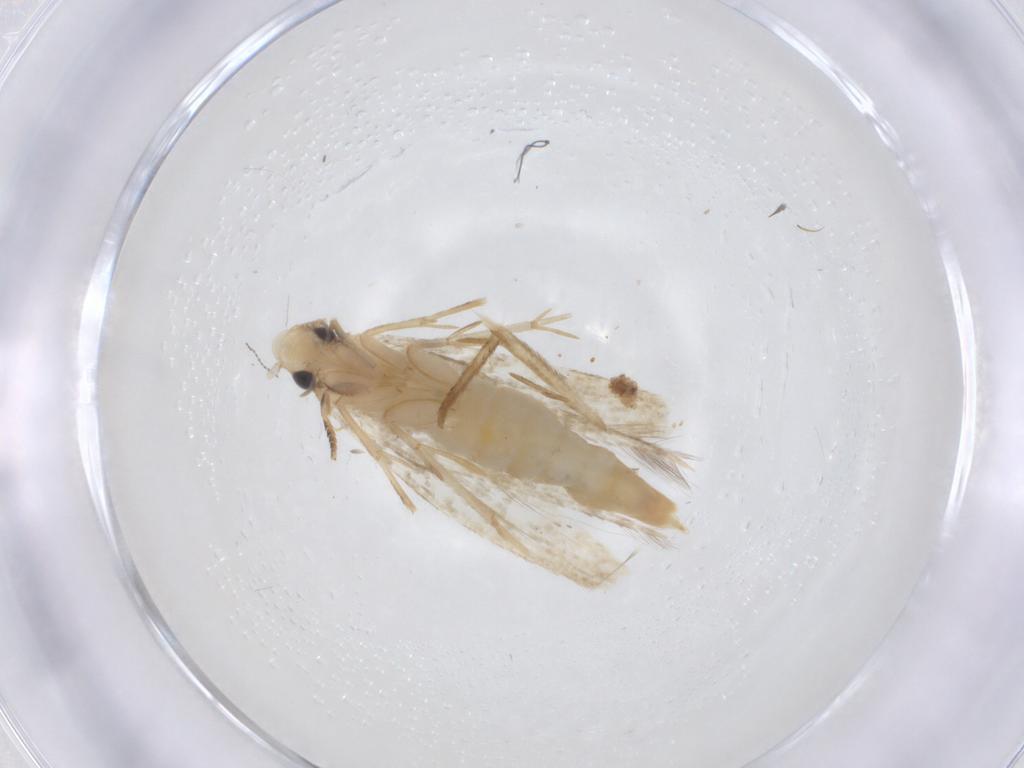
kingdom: Animalia
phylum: Arthropoda
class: Insecta
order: Lepidoptera
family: Tineidae
